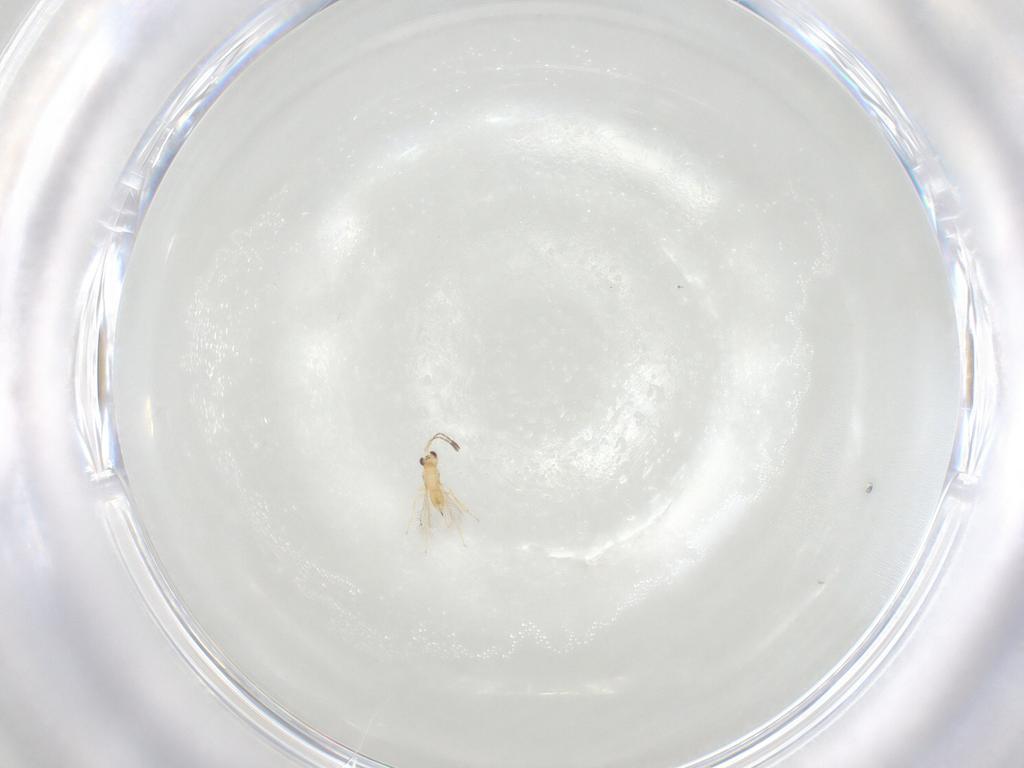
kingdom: Animalia
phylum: Arthropoda
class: Insecta
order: Hymenoptera
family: Mymaridae
